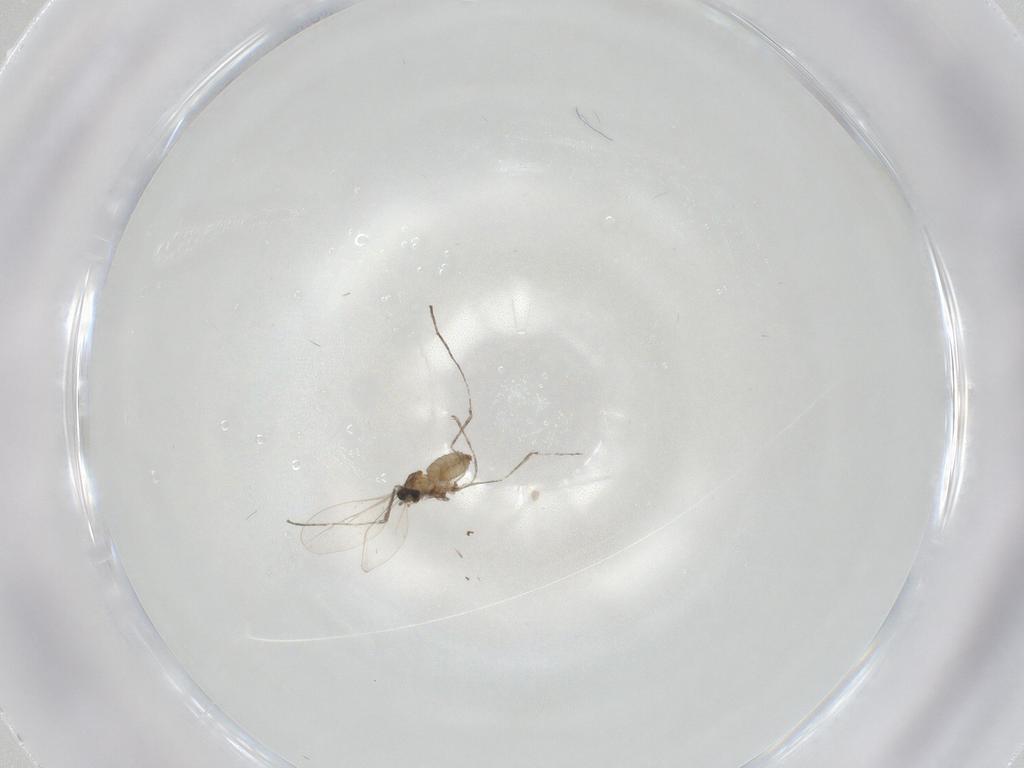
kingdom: Animalia
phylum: Arthropoda
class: Insecta
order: Diptera
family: Cecidomyiidae
